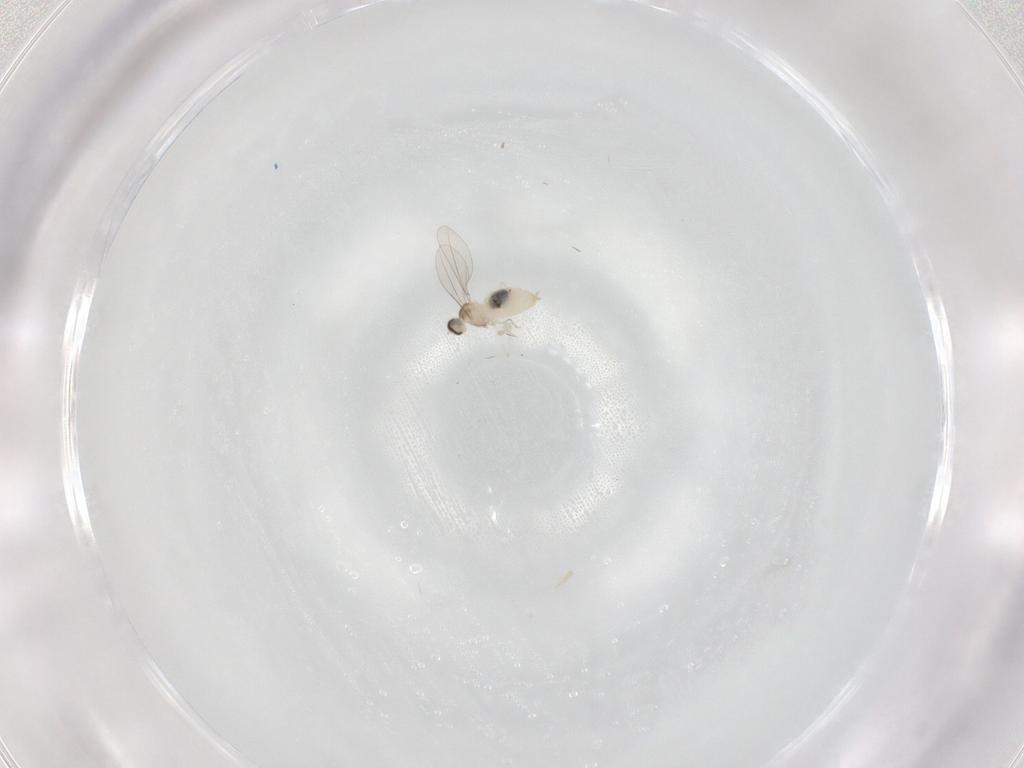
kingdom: Animalia
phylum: Arthropoda
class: Insecta
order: Diptera
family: Cecidomyiidae
